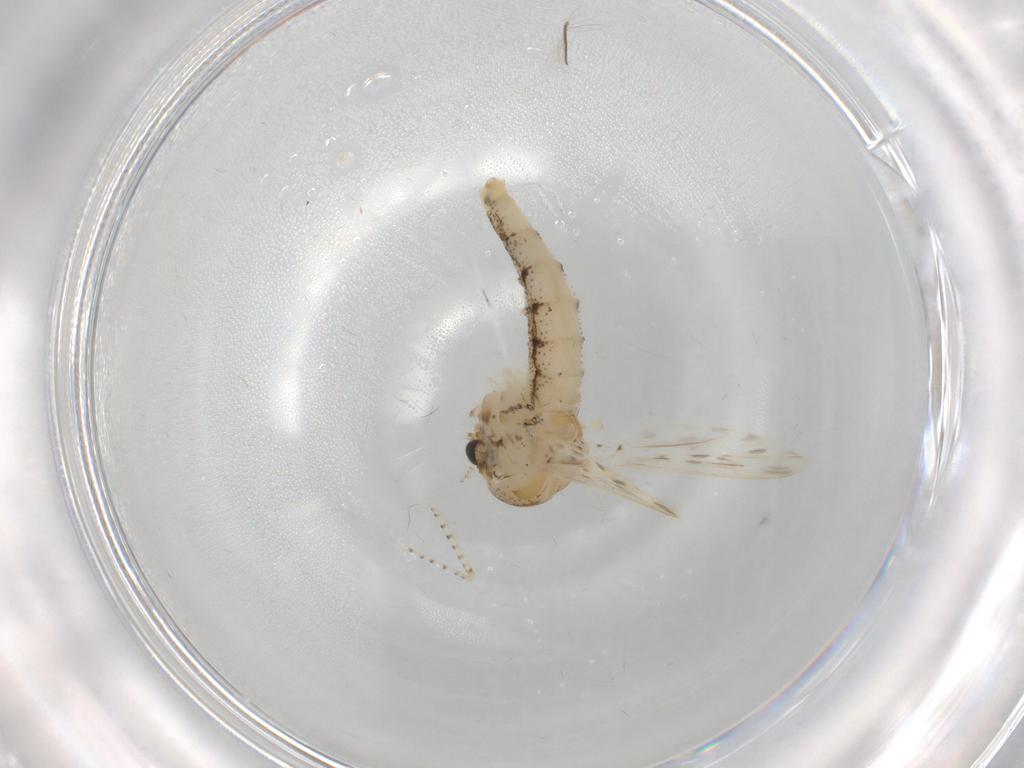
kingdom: Animalia
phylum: Arthropoda
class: Insecta
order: Diptera
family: Chaoboridae
